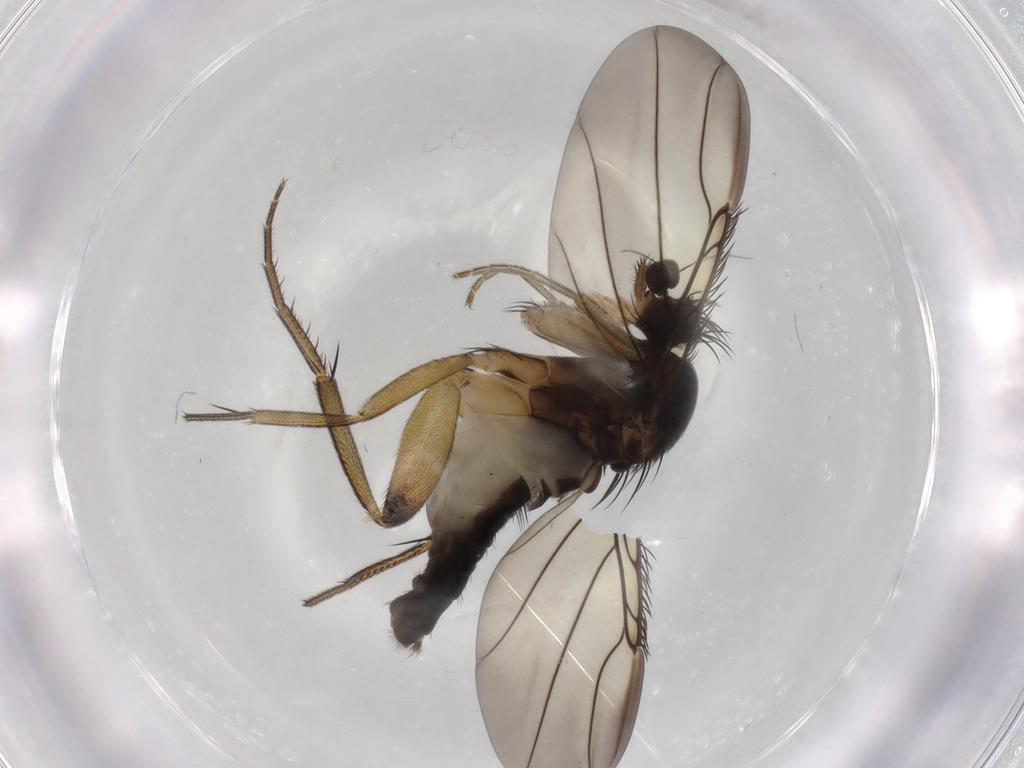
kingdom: Animalia
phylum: Arthropoda
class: Insecta
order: Diptera
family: Phoridae
